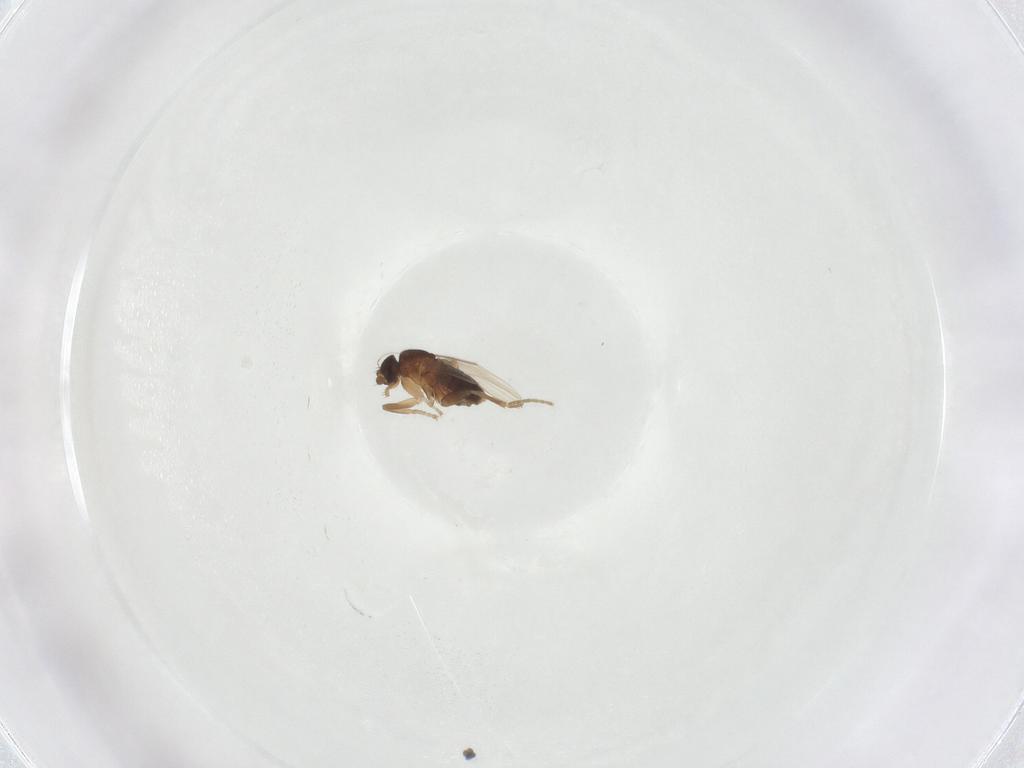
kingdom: Animalia
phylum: Arthropoda
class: Insecta
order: Diptera
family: Phoridae
